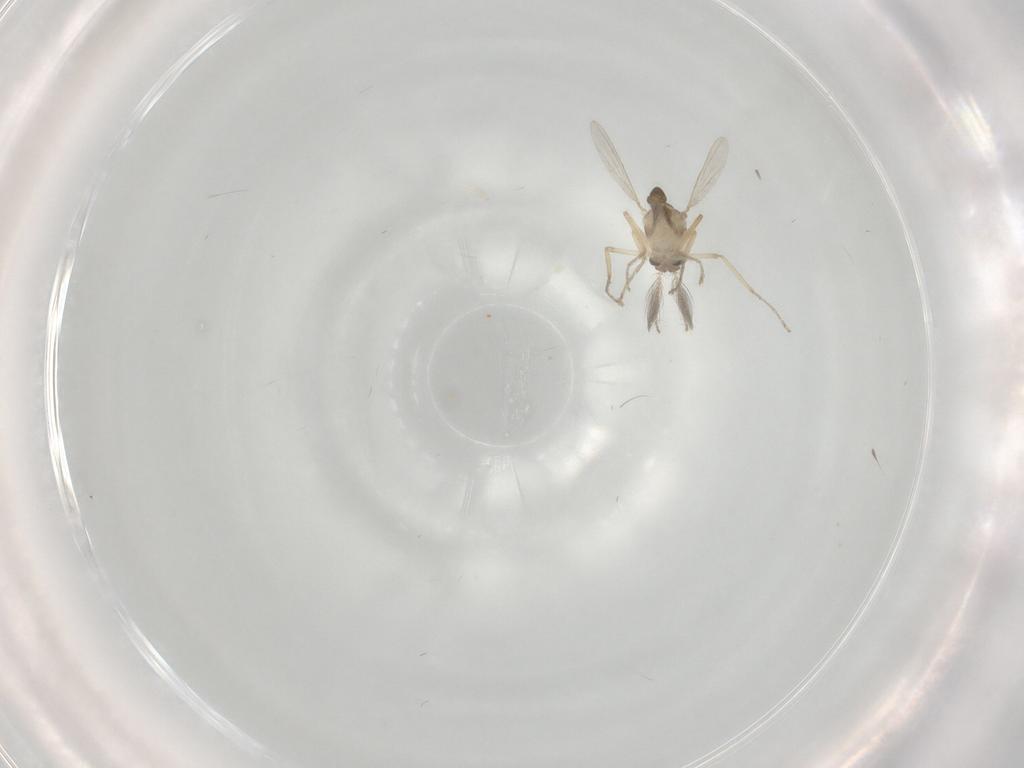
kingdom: Animalia
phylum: Arthropoda
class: Insecta
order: Diptera
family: Ceratopogonidae
